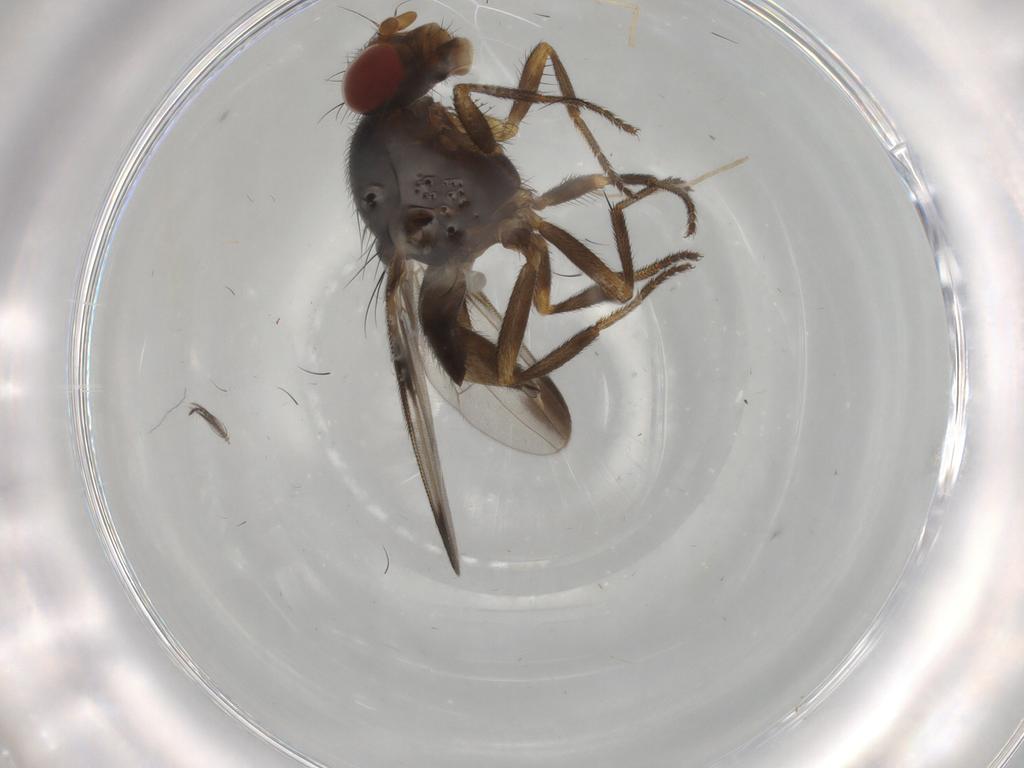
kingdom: Animalia
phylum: Arthropoda
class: Insecta
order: Diptera
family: Ulidiidae
